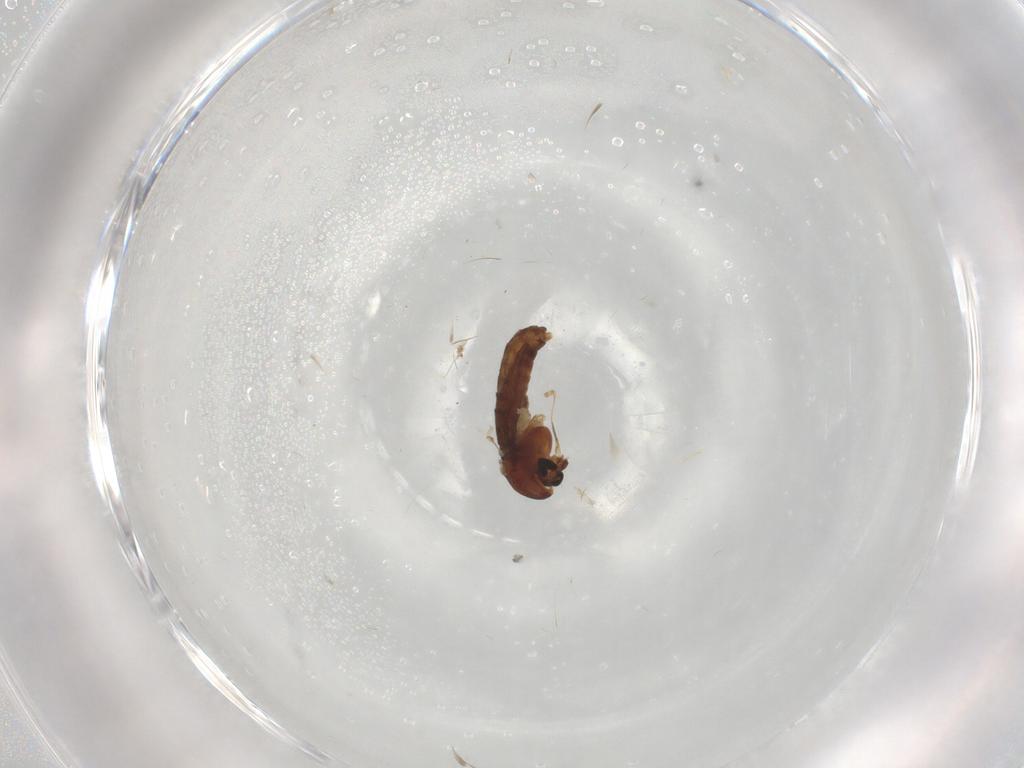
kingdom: Animalia
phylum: Arthropoda
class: Insecta
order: Diptera
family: Chironomidae
